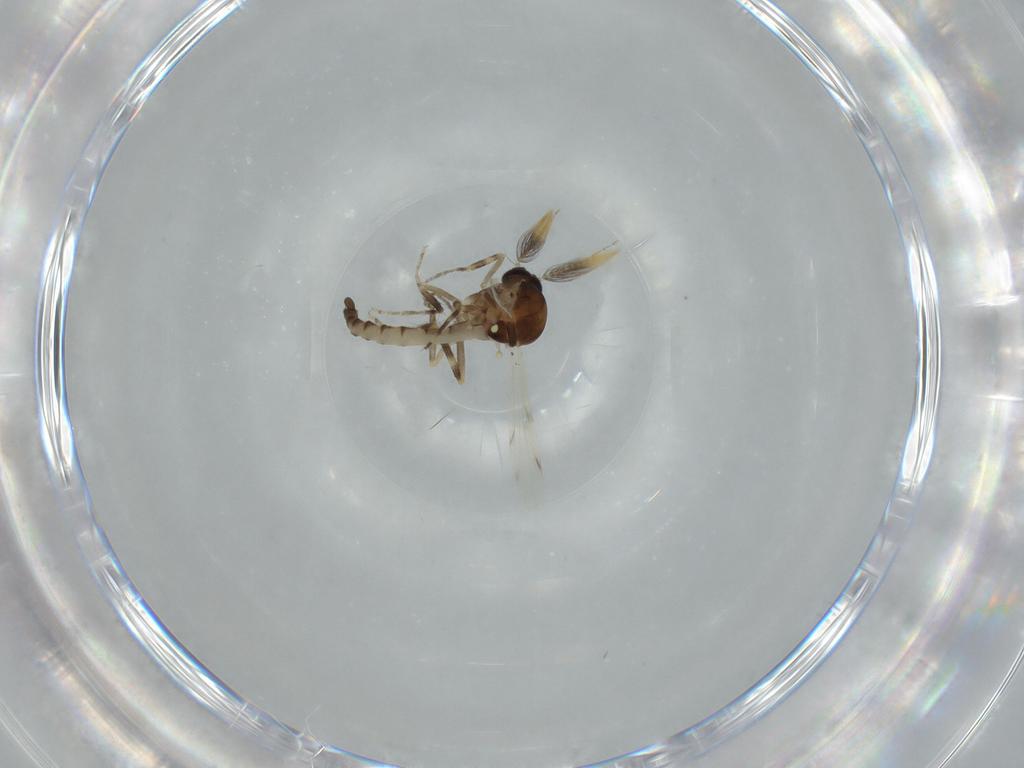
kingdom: Animalia
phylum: Arthropoda
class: Insecta
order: Diptera
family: Ceratopogonidae
